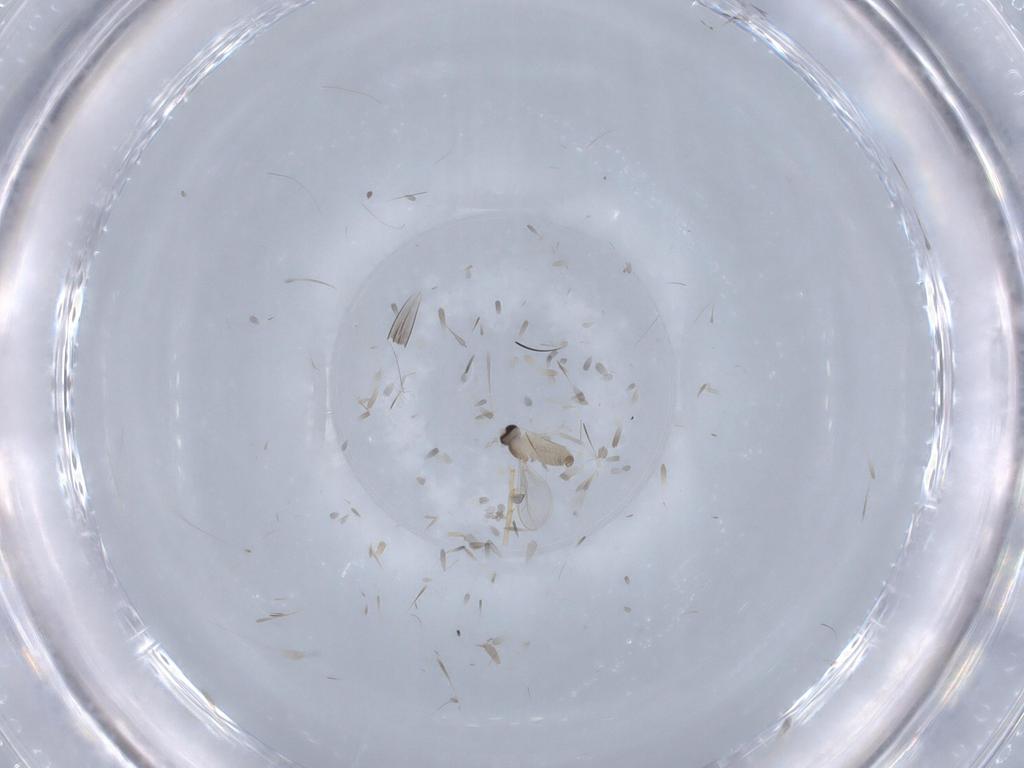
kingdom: Animalia
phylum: Arthropoda
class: Insecta
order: Diptera
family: Cecidomyiidae
